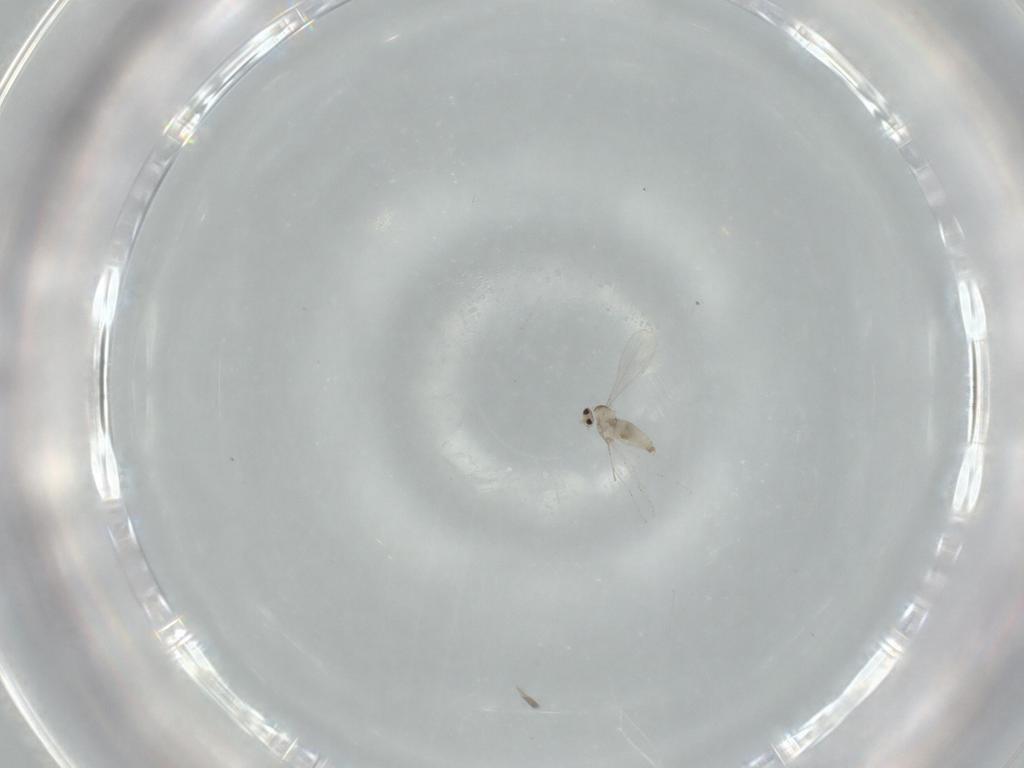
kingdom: Animalia
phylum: Arthropoda
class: Insecta
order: Diptera
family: Cecidomyiidae
